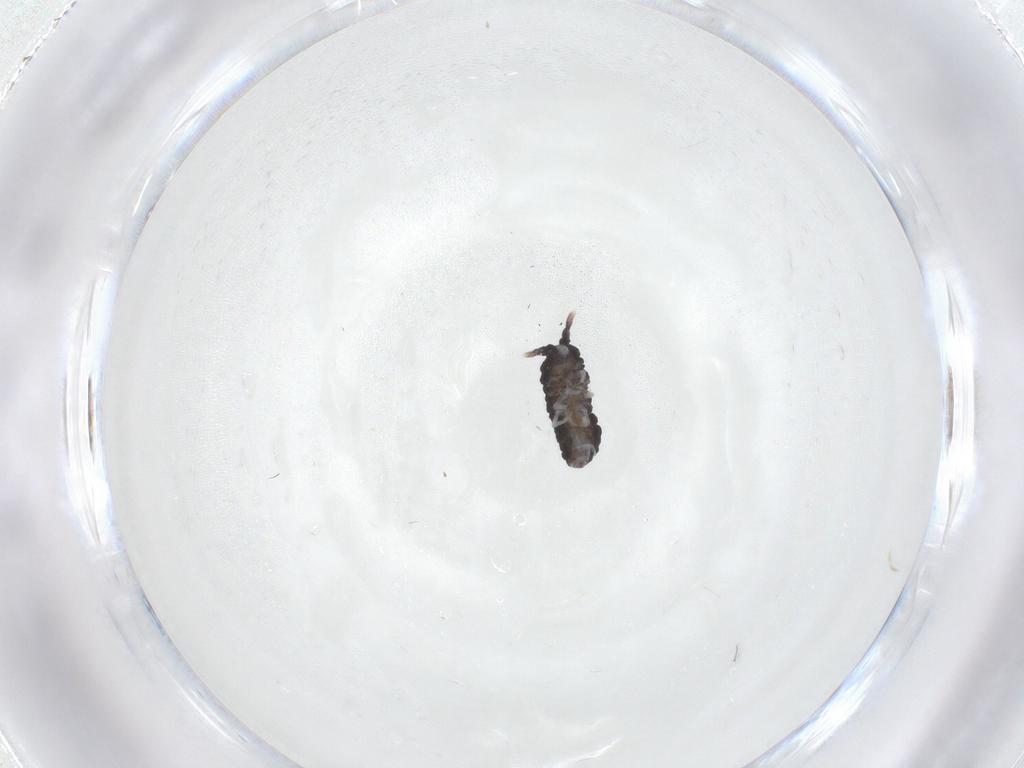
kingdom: Animalia
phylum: Arthropoda
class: Collembola
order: Poduromorpha
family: Neanuridae
